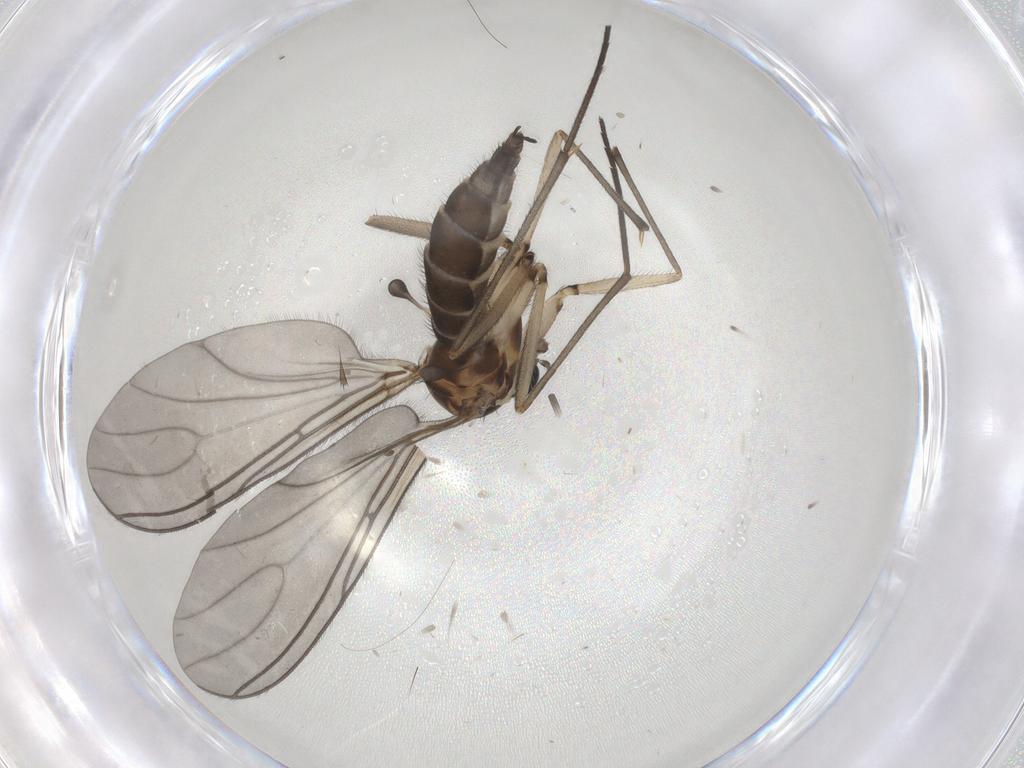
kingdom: Animalia
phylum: Arthropoda
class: Insecta
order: Diptera
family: Sciaridae
